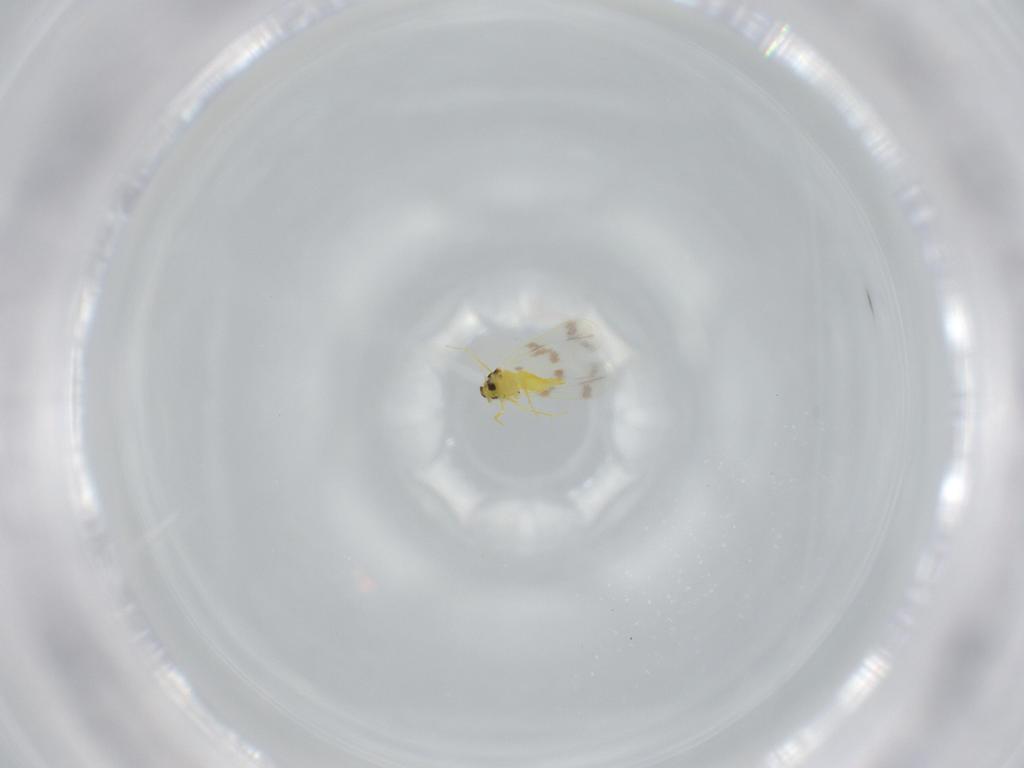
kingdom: Animalia
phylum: Arthropoda
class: Insecta
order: Hemiptera
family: Aleyrodidae
